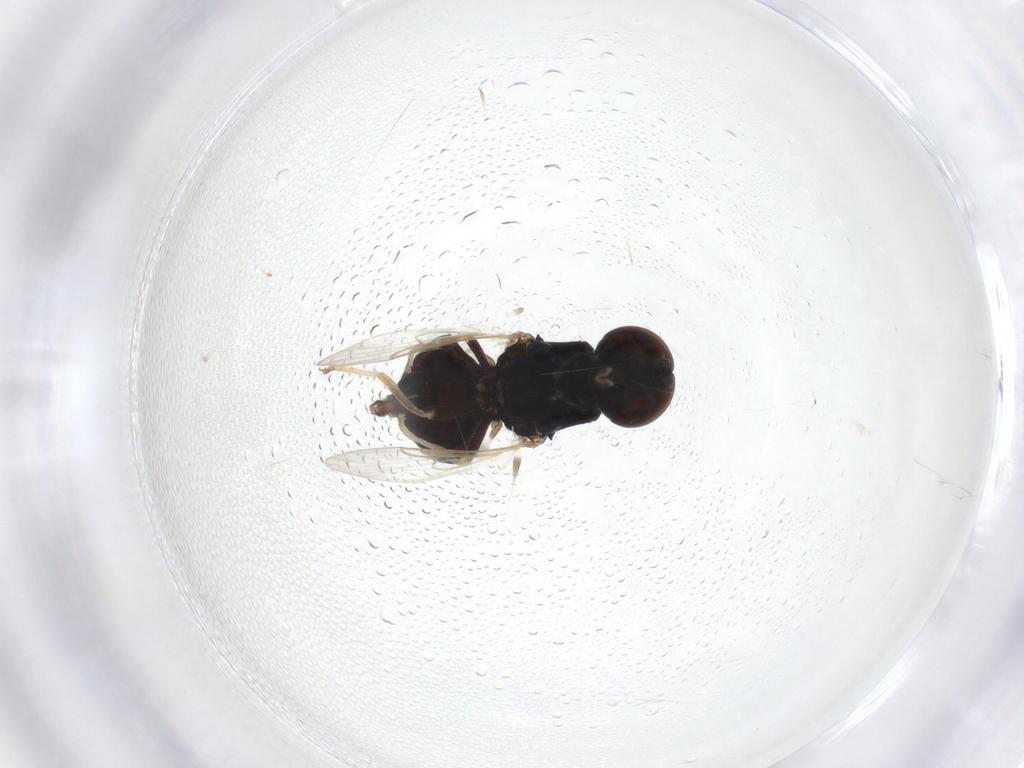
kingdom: Animalia
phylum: Arthropoda
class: Insecta
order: Diptera
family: Stratiomyidae
